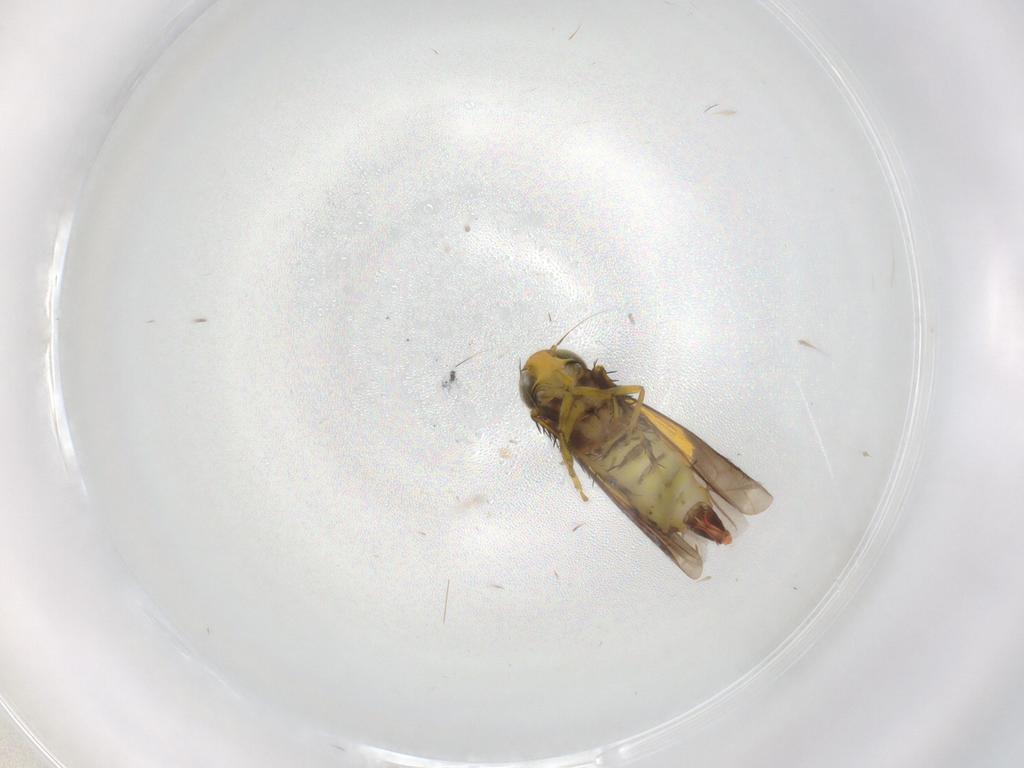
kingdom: Animalia
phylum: Arthropoda
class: Insecta
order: Hemiptera
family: Cicadellidae
